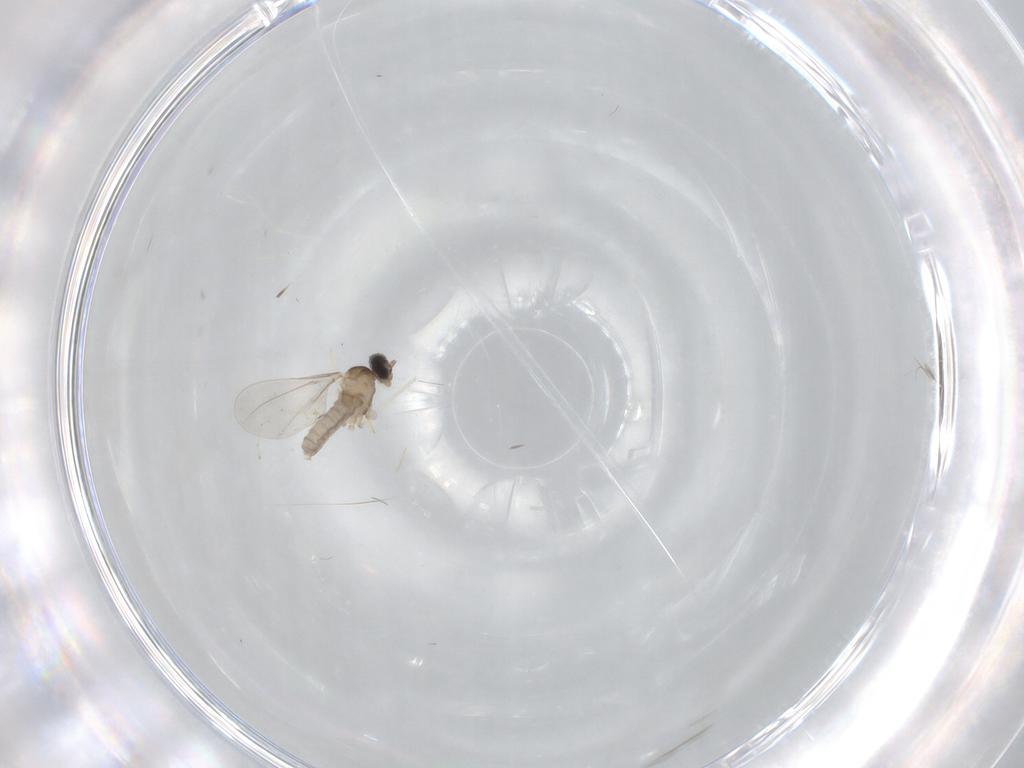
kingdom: Animalia
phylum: Arthropoda
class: Insecta
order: Diptera
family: Cecidomyiidae
